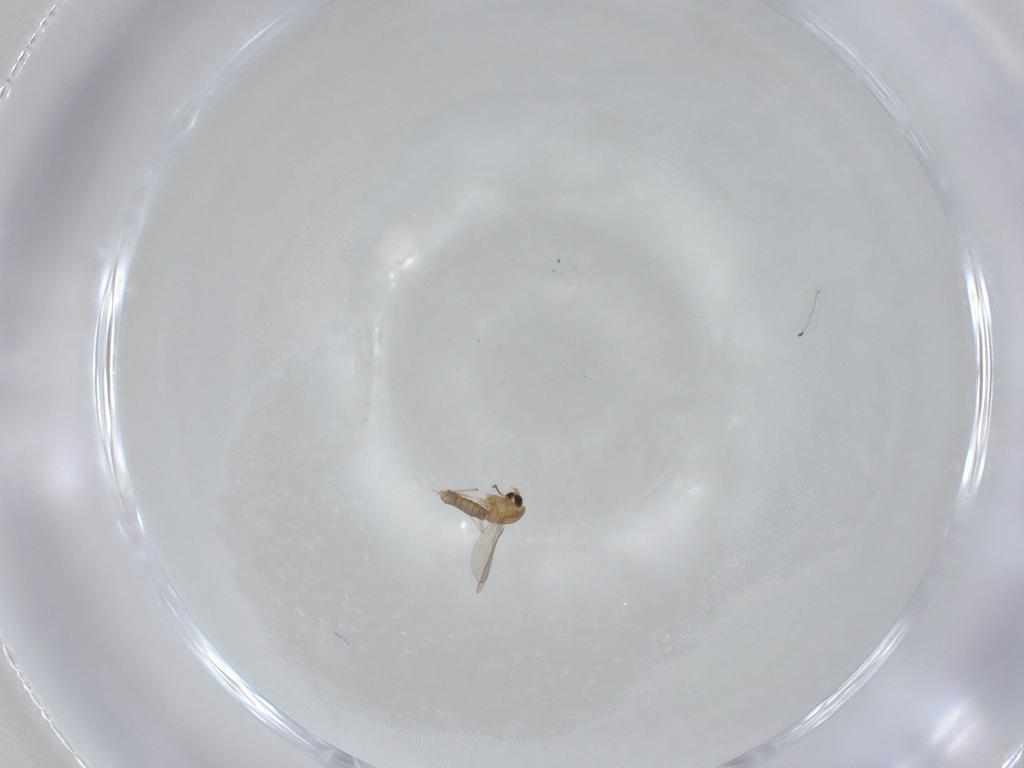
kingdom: Animalia
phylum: Arthropoda
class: Insecta
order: Diptera
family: Chironomidae
